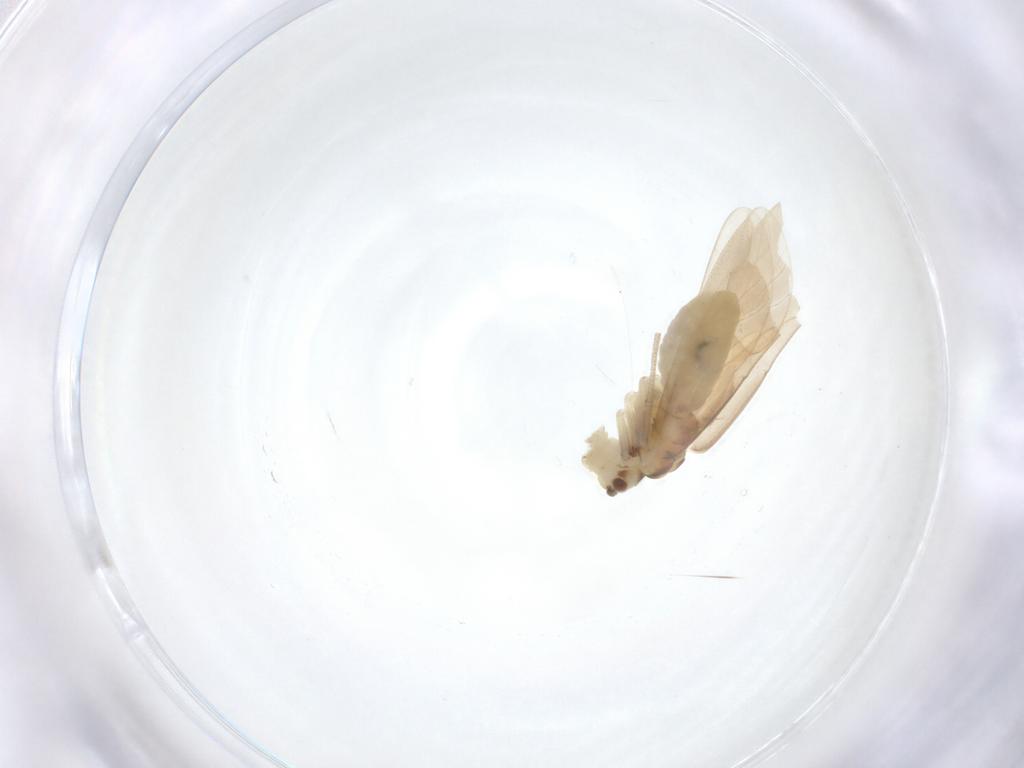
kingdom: Animalia
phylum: Arthropoda
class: Insecta
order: Psocodea
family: Caeciliusidae
